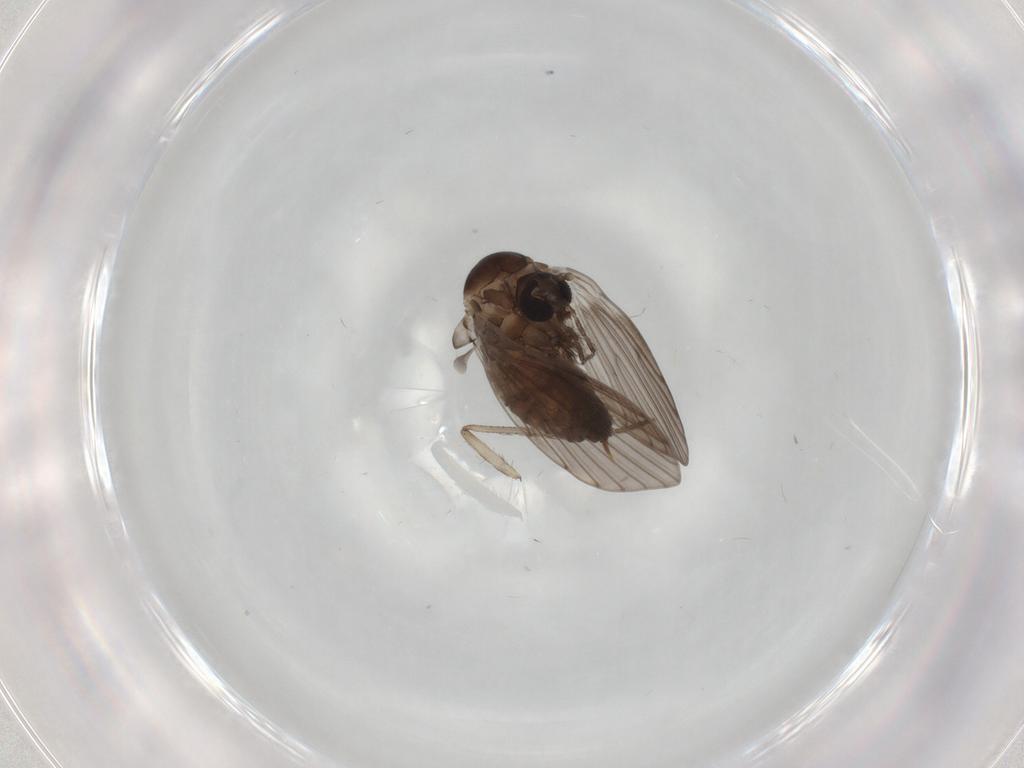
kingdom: Animalia
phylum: Arthropoda
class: Insecta
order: Diptera
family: Psychodidae
